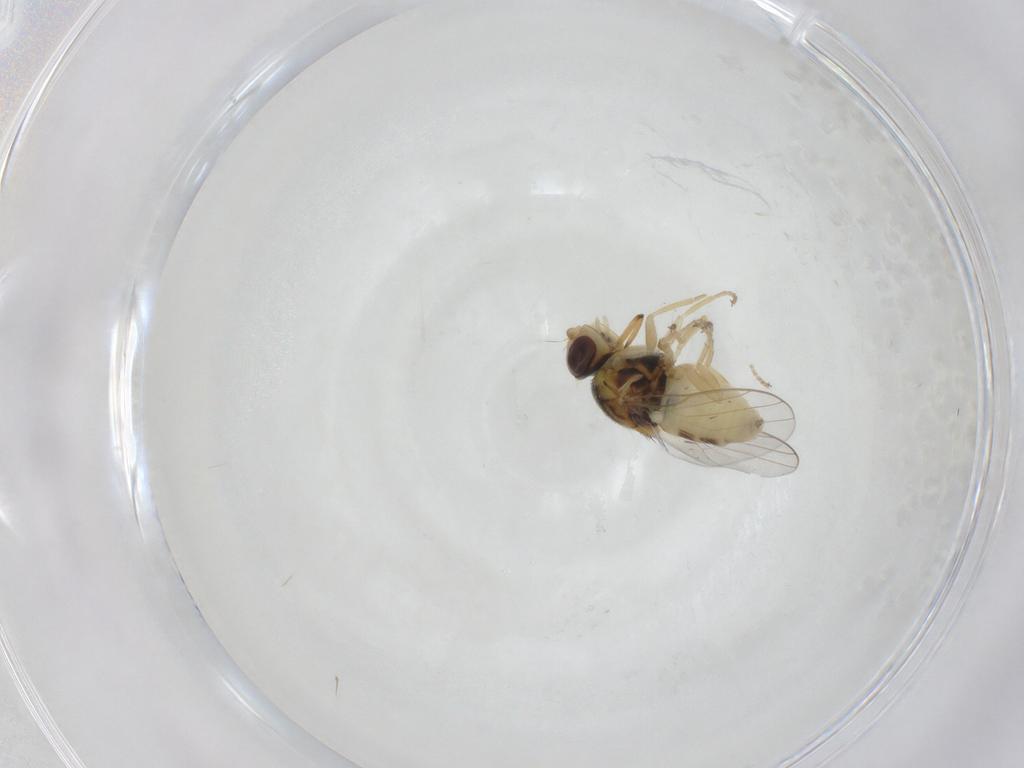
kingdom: Animalia
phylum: Arthropoda
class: Insecta
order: Diptera
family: Chloropidae
